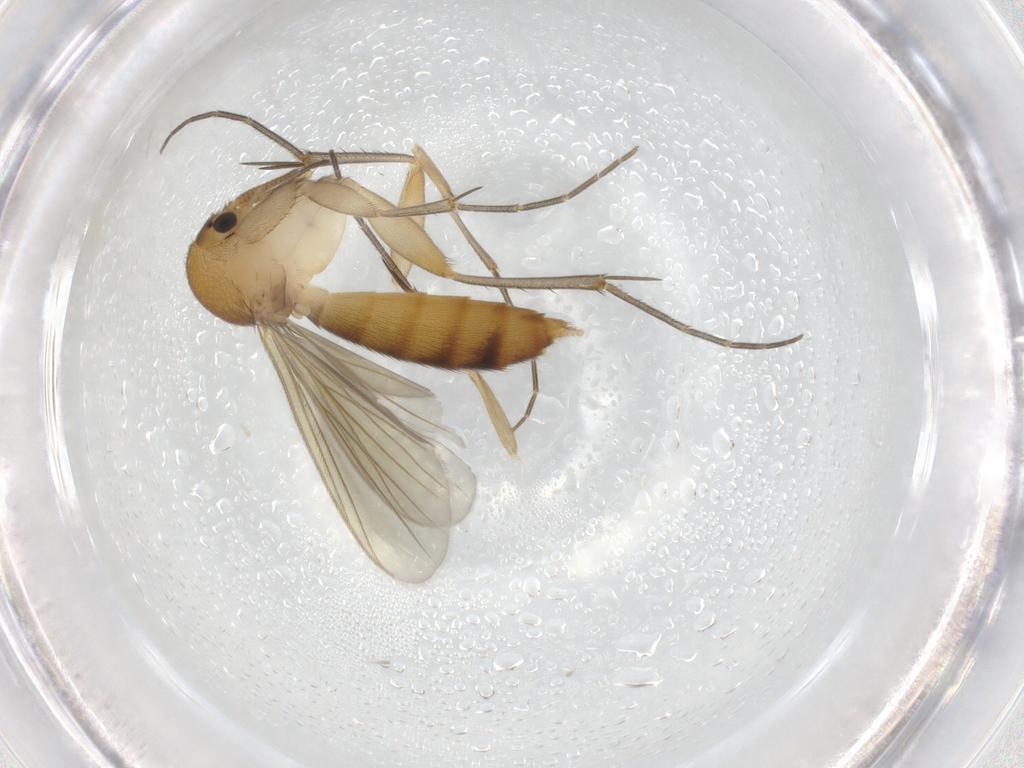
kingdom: Animalia
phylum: Arthropoda
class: Insecta
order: Diptera
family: Mycetophilidae
